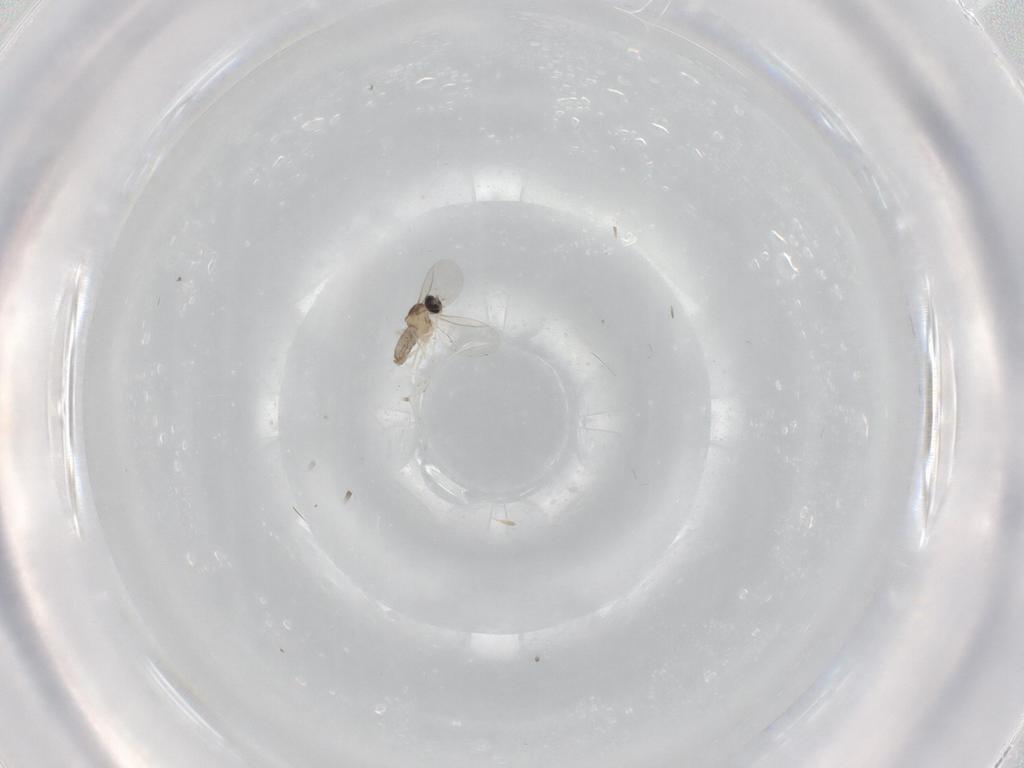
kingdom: Animalia
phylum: Arthropoda
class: Insecta
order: Diptera
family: Cecidomyiidae
